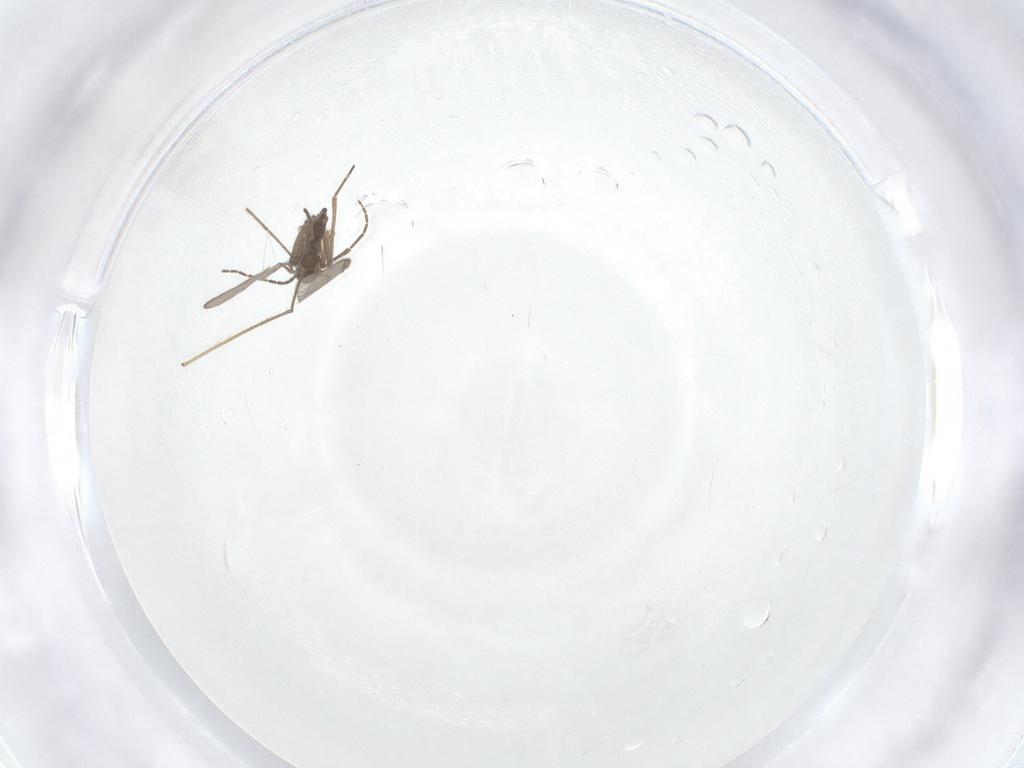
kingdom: Animalia
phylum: Arthropoda
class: Insecta
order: Diptera
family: Sciaridae
